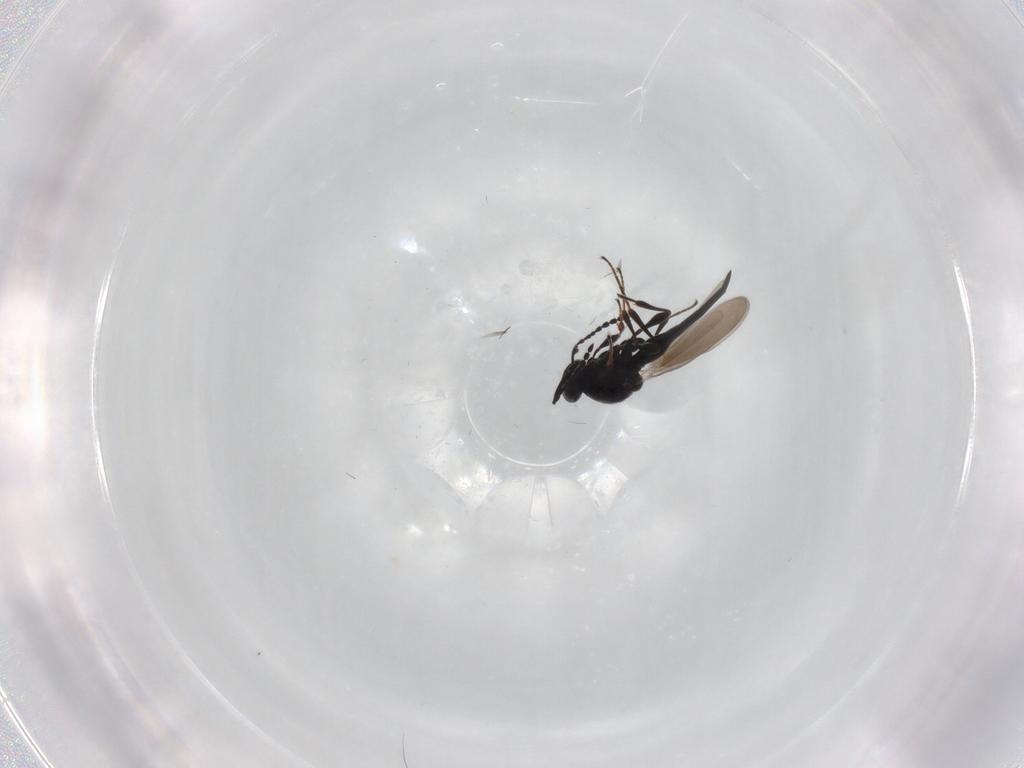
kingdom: Animalia
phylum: Arthropoda
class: Insecta
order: Hymenoptera
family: Platygastridae
